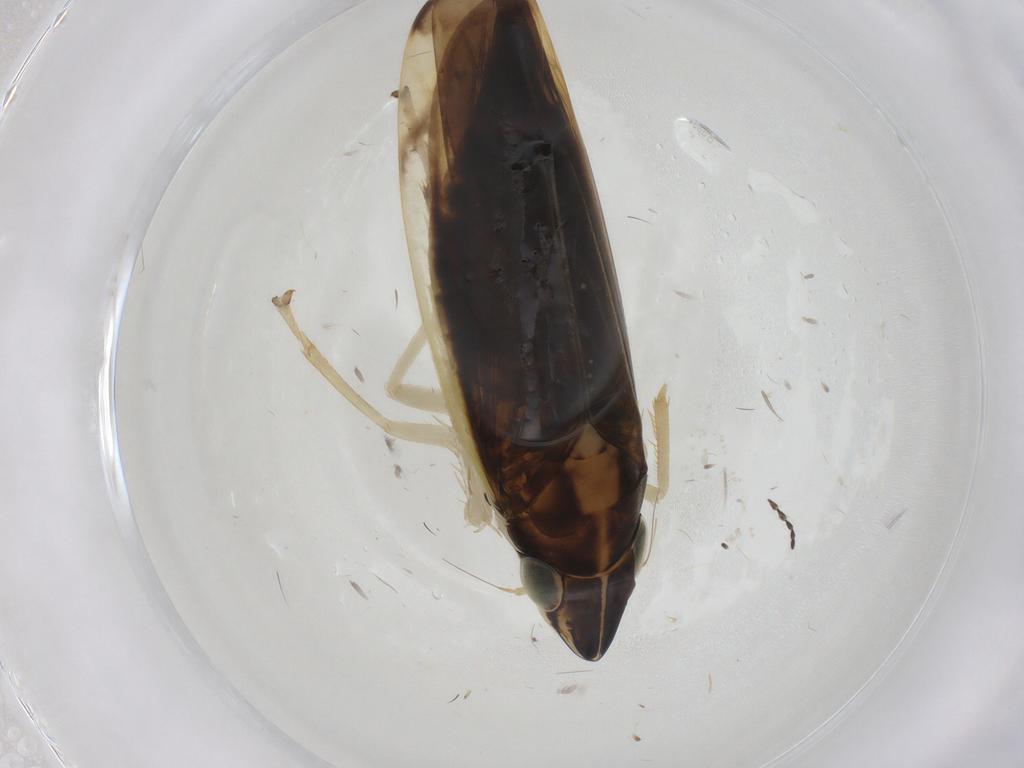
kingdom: Animalia
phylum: Arthropoda
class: Insecta
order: Hemiptera
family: Cicadellidae
